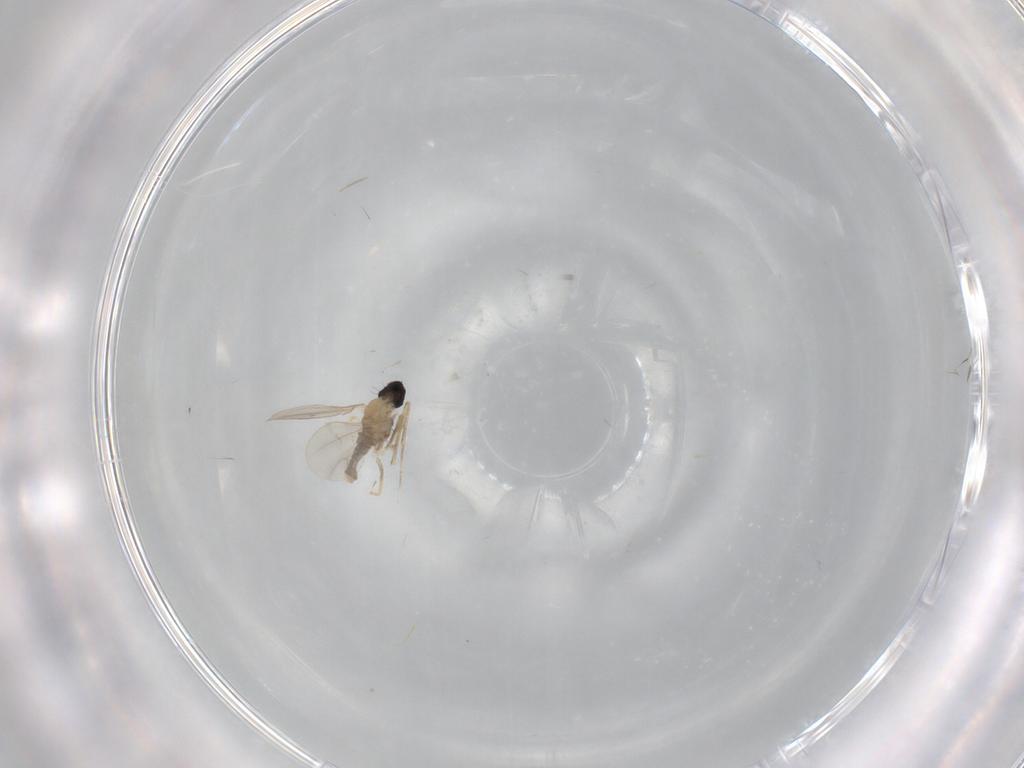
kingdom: Animalia
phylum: Arthropoda
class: Insecta
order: Diptera
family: Cecidomyiidae
